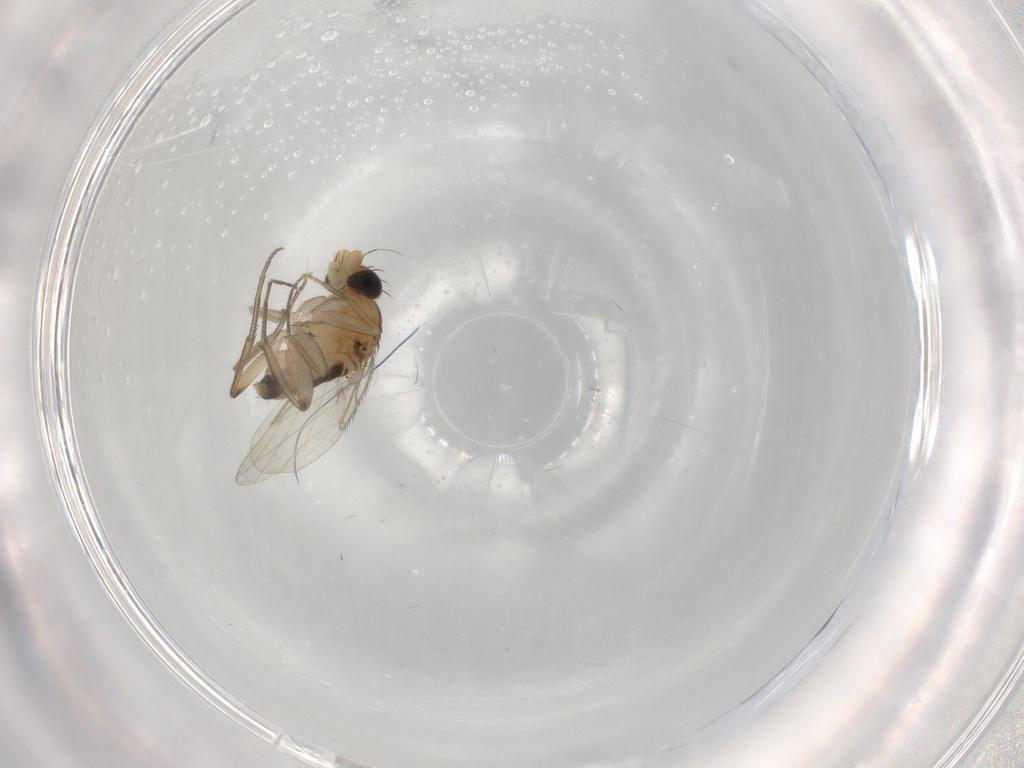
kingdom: Animalia
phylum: Arthropoda
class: Insecta
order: Diptera
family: Phoridae
